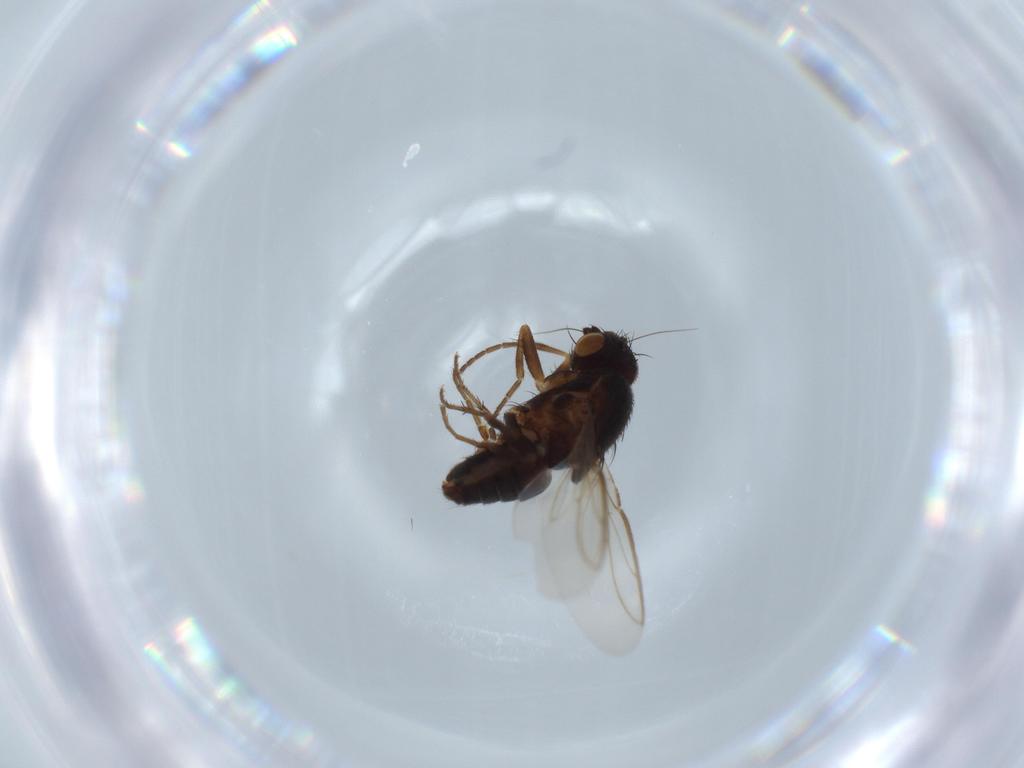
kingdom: Animalia
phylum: Arthropoda
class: Insecta
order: Diptera
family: Sphaeroceridae
